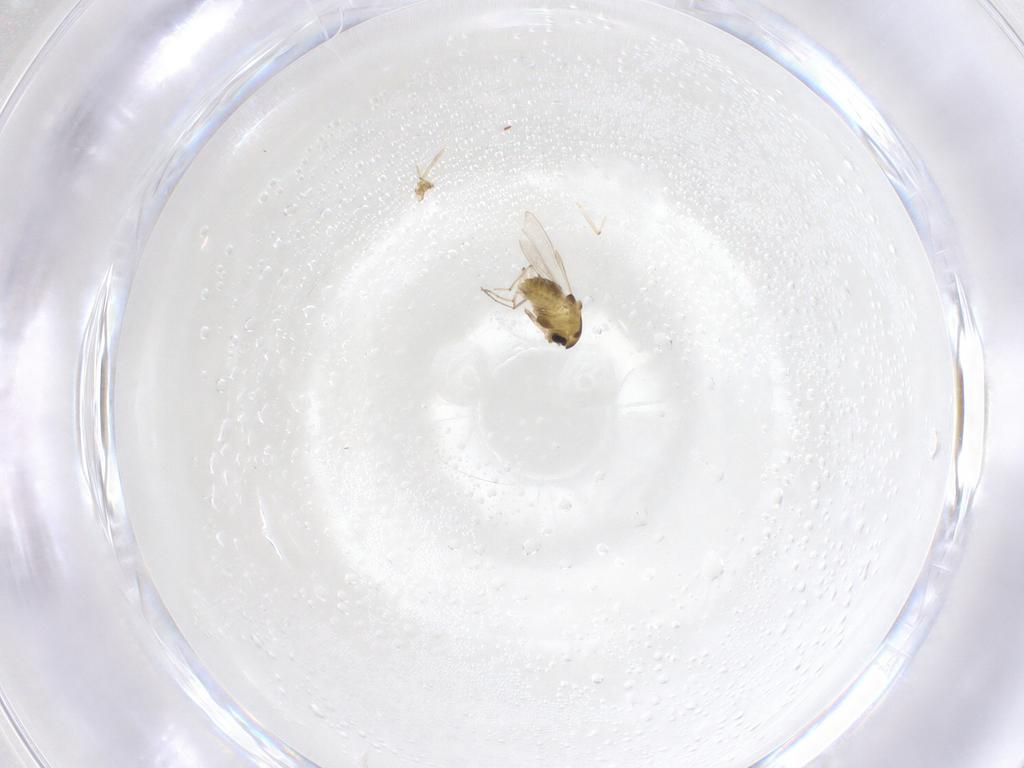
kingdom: Animalia
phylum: Arthropoda
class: Insecta
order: Diptera
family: Chironomidae
